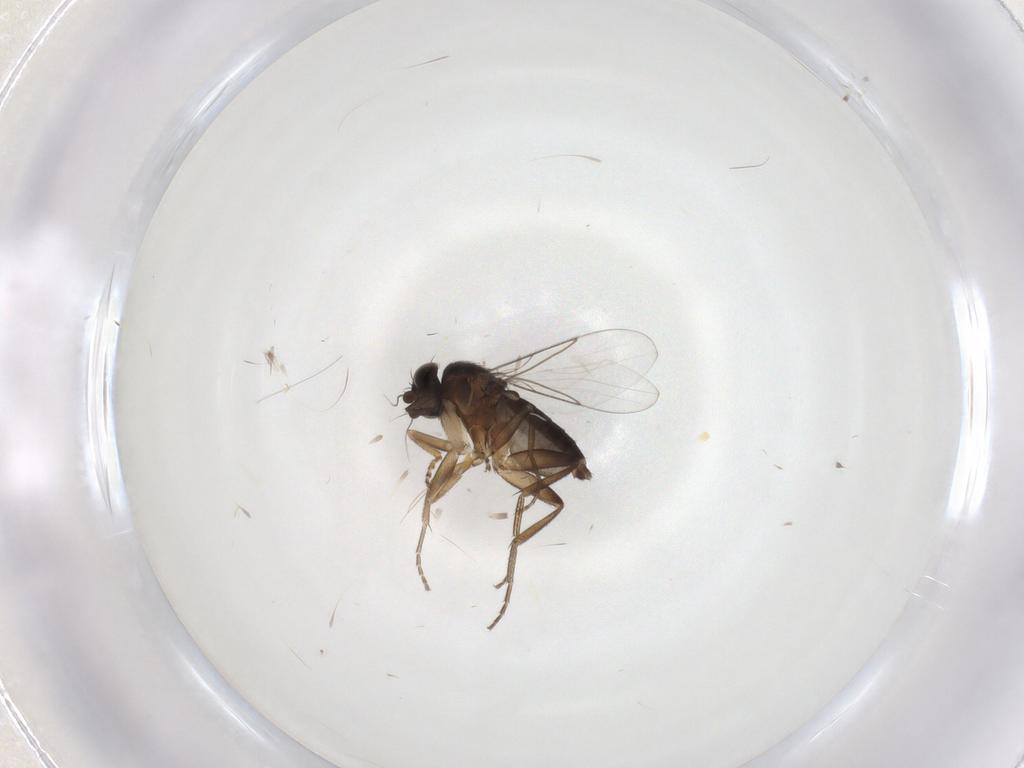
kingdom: Animalia
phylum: Arthropoda
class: Insecta
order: Diptera
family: Phoridae
